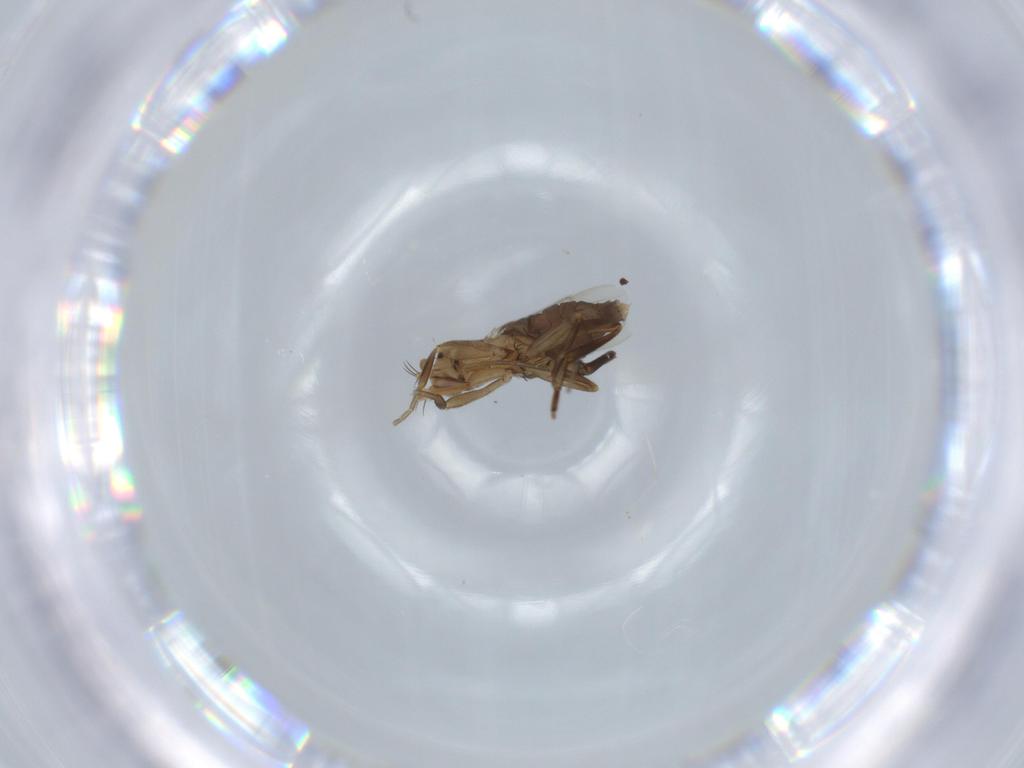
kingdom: Animalia
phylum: Arthropoda
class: Insecta
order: Diptera
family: Phoridae
